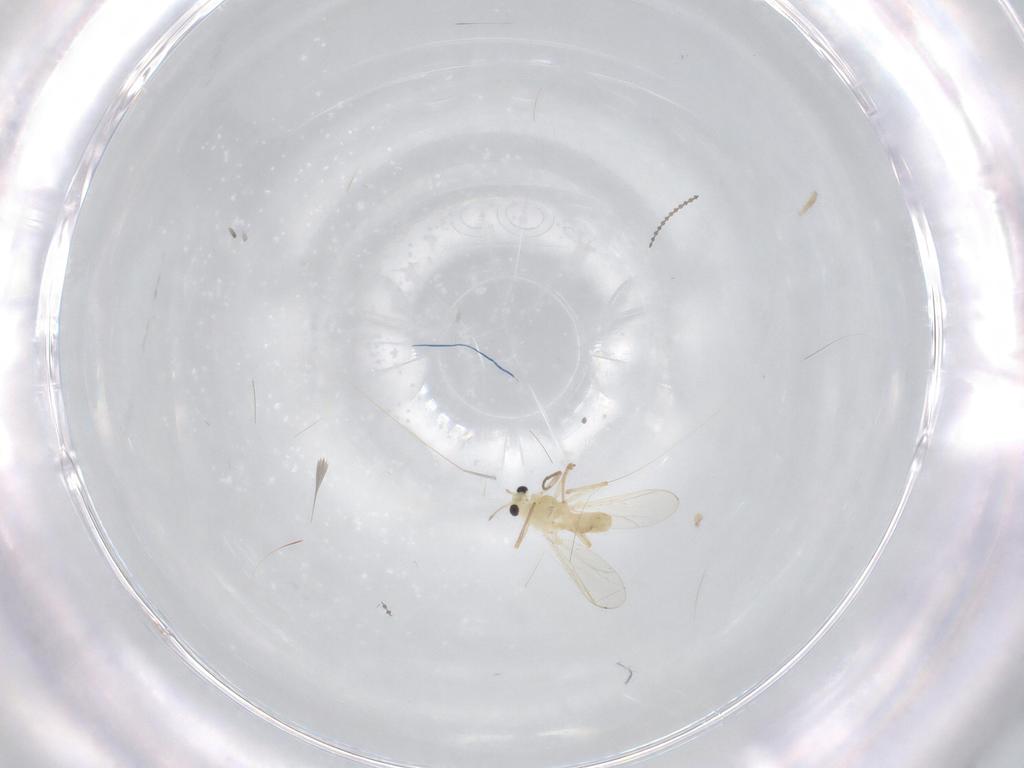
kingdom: Animalia
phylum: Arthropoda
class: Insecta
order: Diptera
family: Chironomidae
